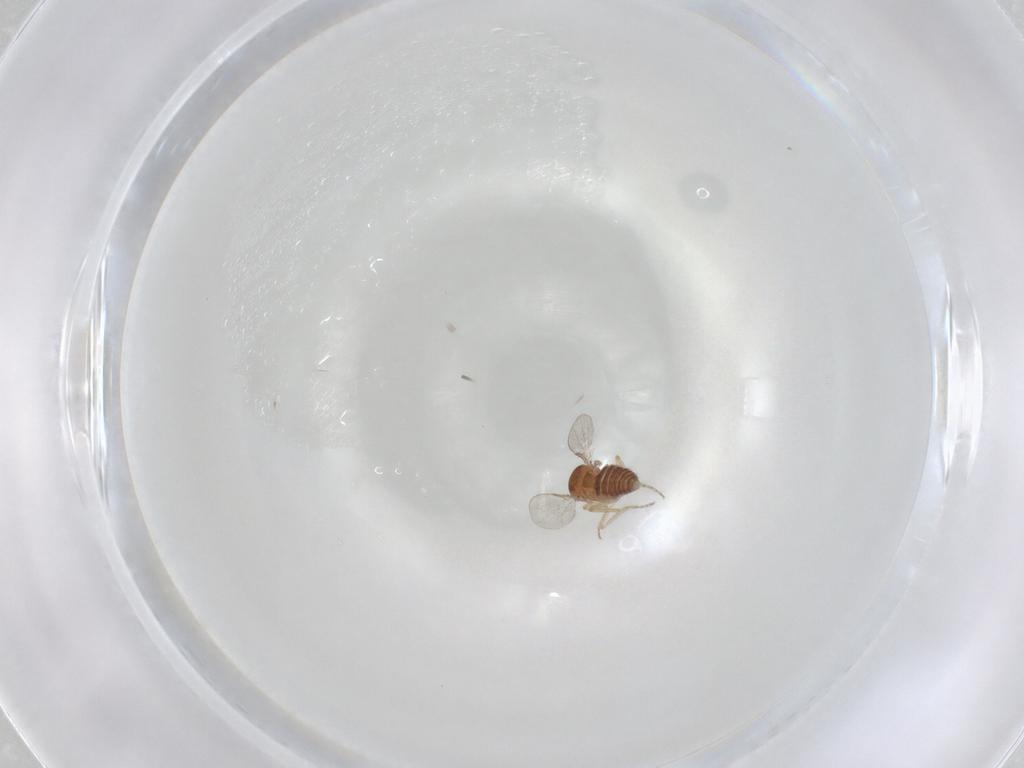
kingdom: Animalia
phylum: Arthropoda
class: Insecta
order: Diptera
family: Ceratopogonidae
